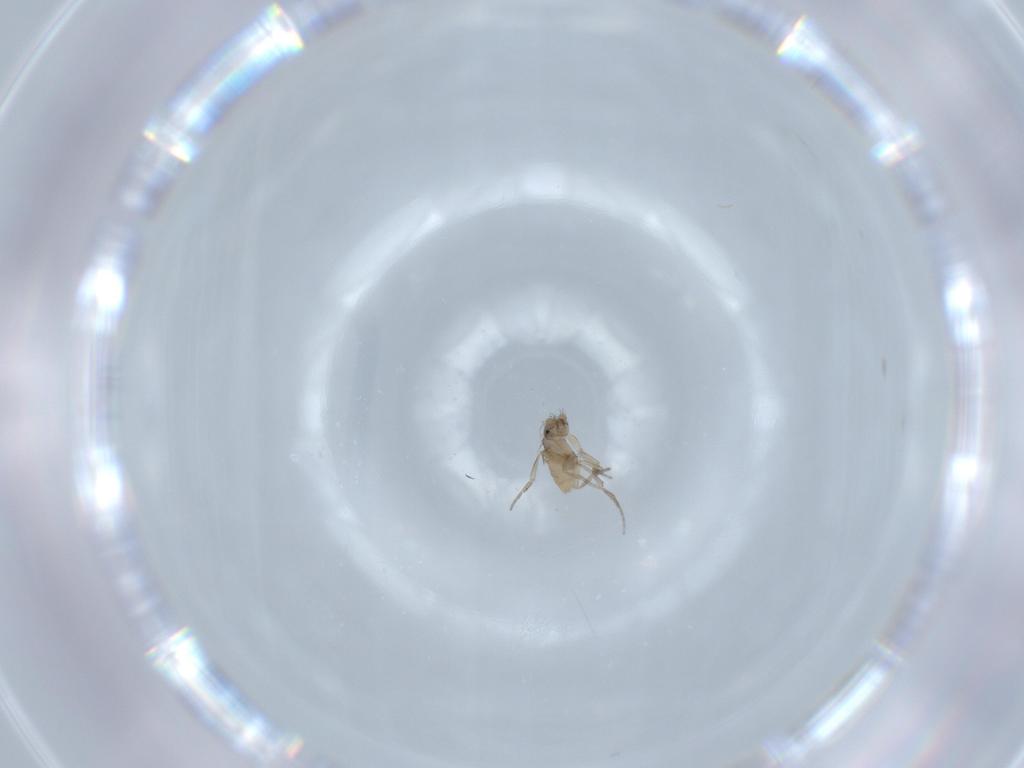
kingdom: Animalia
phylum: Arthropoda
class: Insecta
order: Diptera
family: Phoridae
